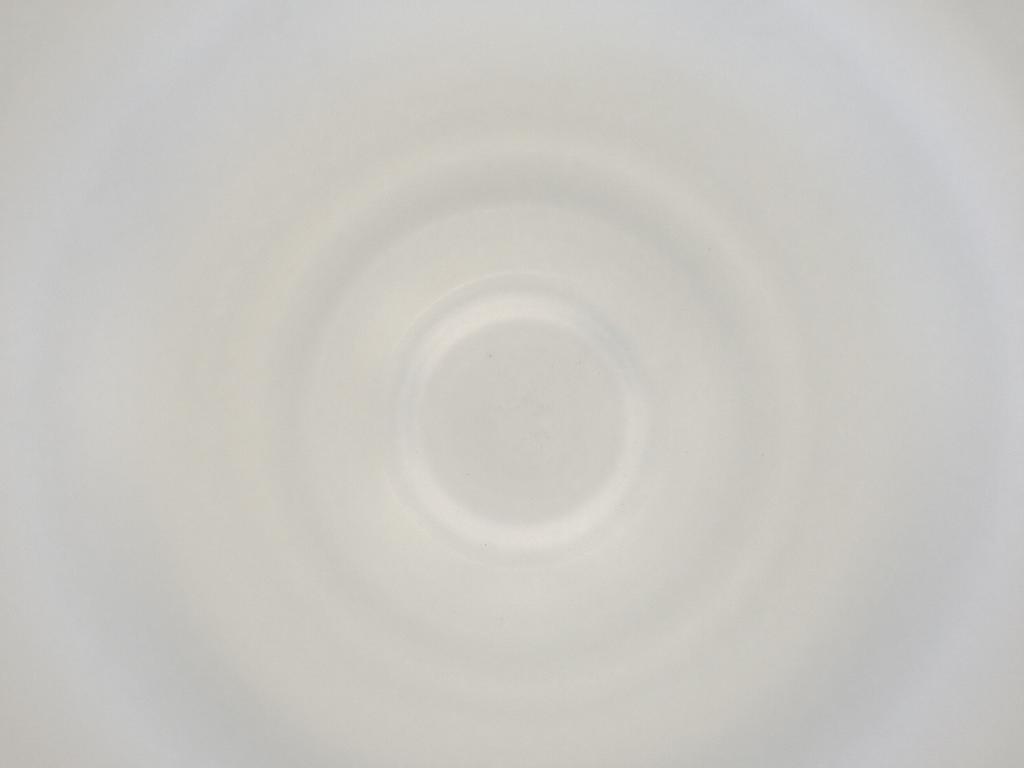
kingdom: Animalia
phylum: Arthropoda
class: Insecta
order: Diptera
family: Cecidomyiidae
